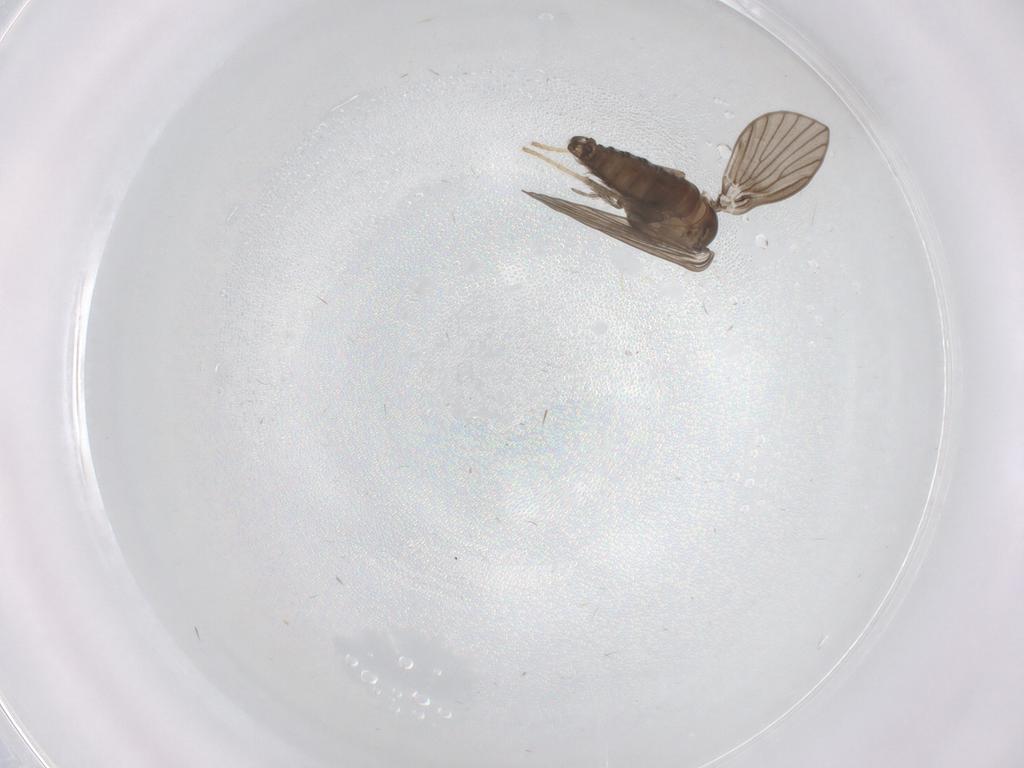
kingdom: Animalia
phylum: Arthropoda
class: Insecta
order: Diptera
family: Psychodidae
